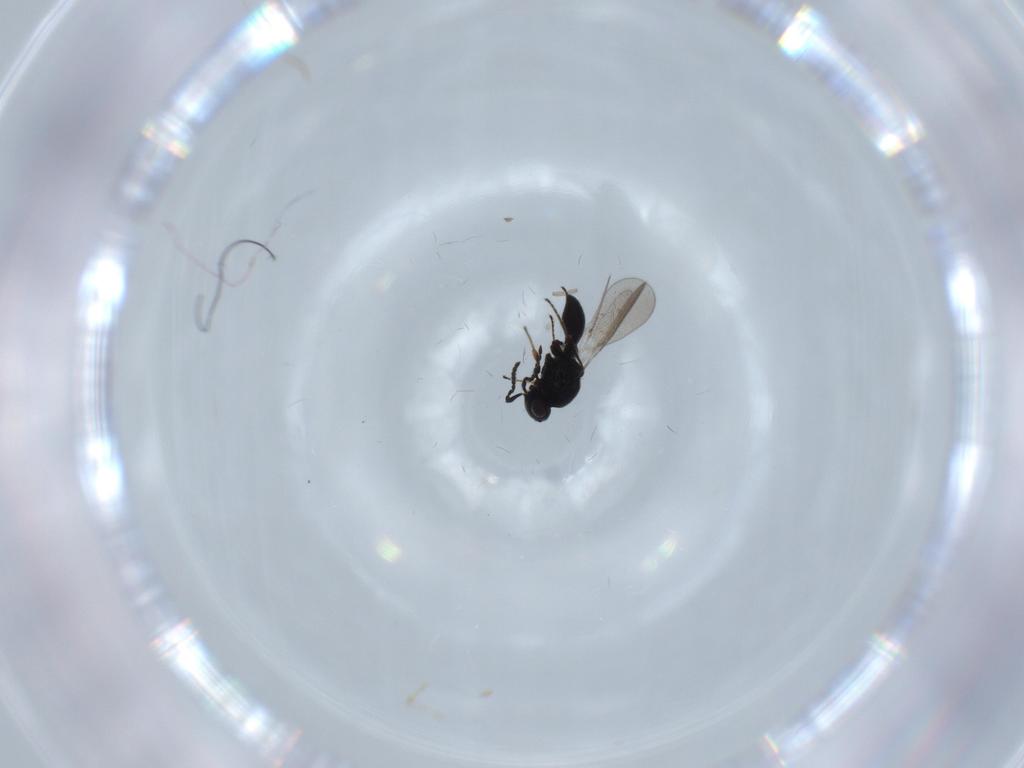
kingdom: Animalia
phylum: Arthropoda
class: Insecta
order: Hymenoptera
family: Platygastridae
